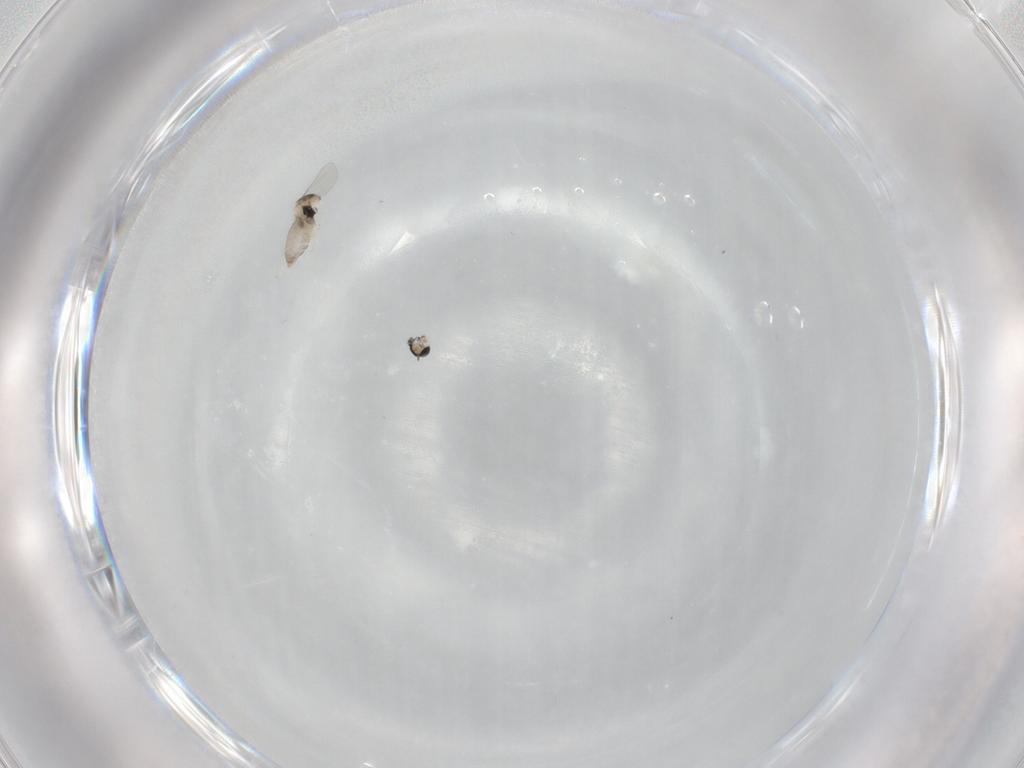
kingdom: Animalia
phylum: Arthropoda
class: Insecta
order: Diptera
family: Cecidomyiidae
